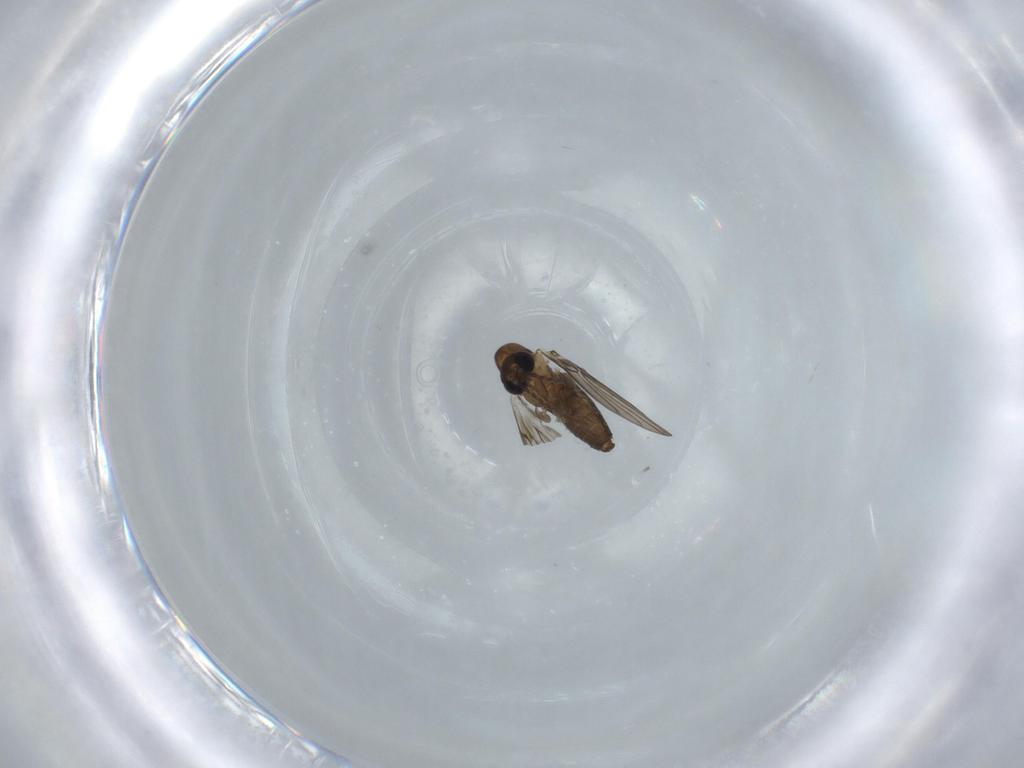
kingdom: Animalia
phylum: Arthropoda
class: Insecta
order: Diptera
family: Psychodidae
